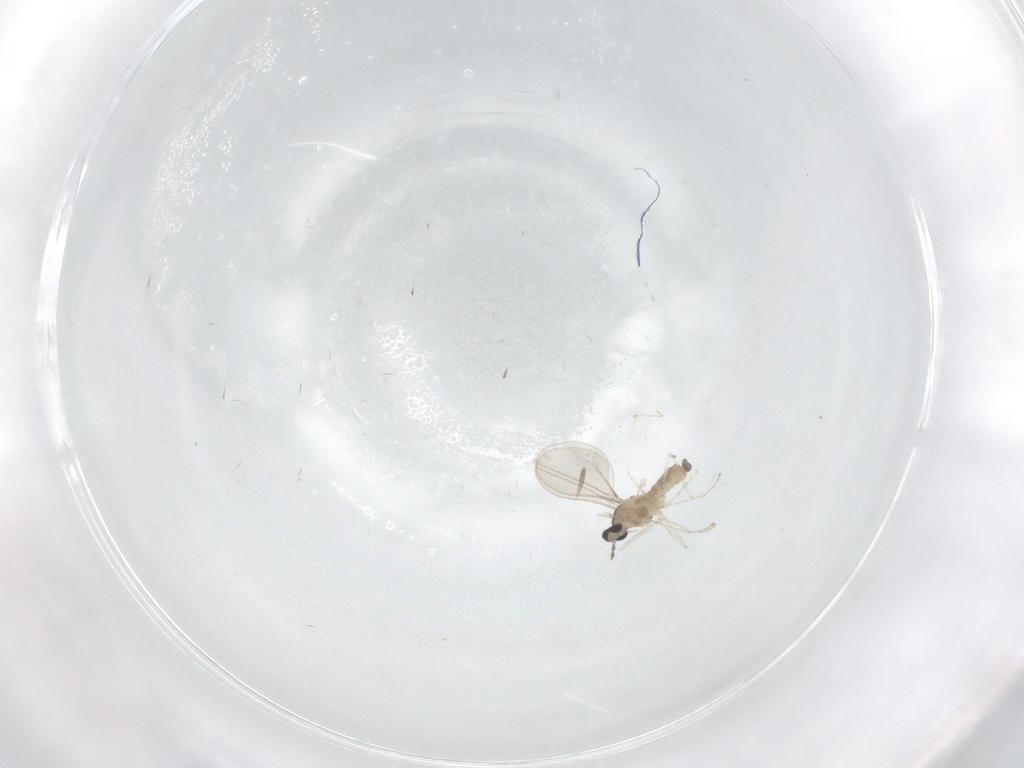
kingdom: Animalia
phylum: Arthropoda
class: Insecta
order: Diptera
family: Cecidomyiidae
